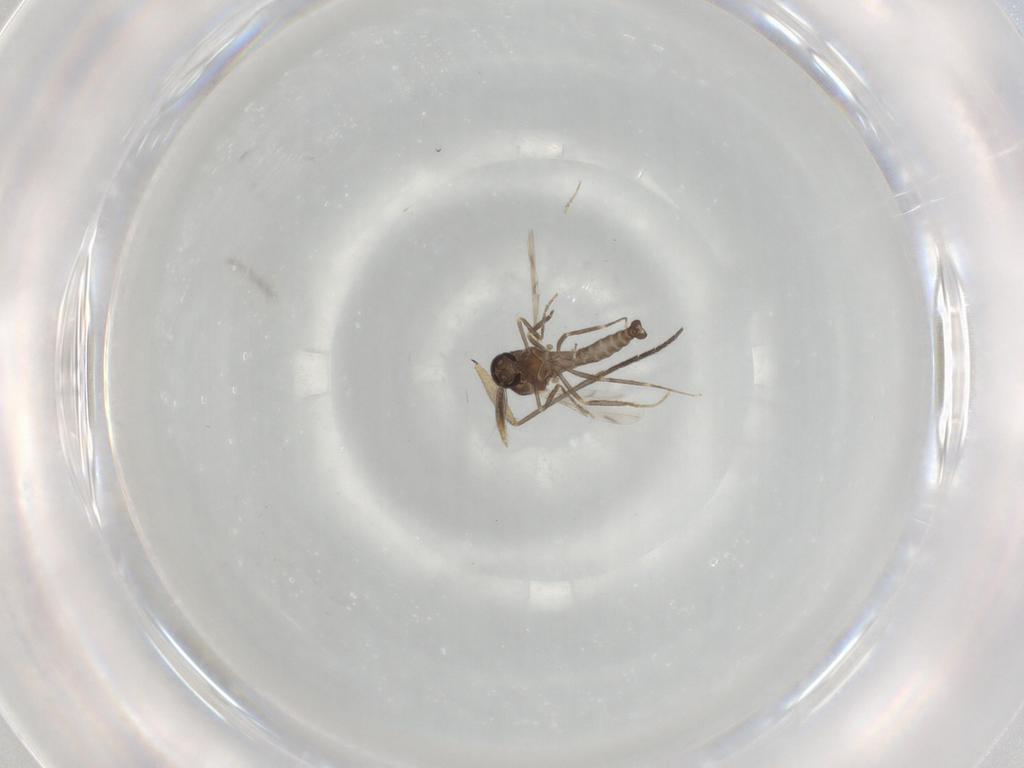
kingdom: Animalia
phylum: Arthropoda
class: Insecta
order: Diptera
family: Ceratopogonidae
